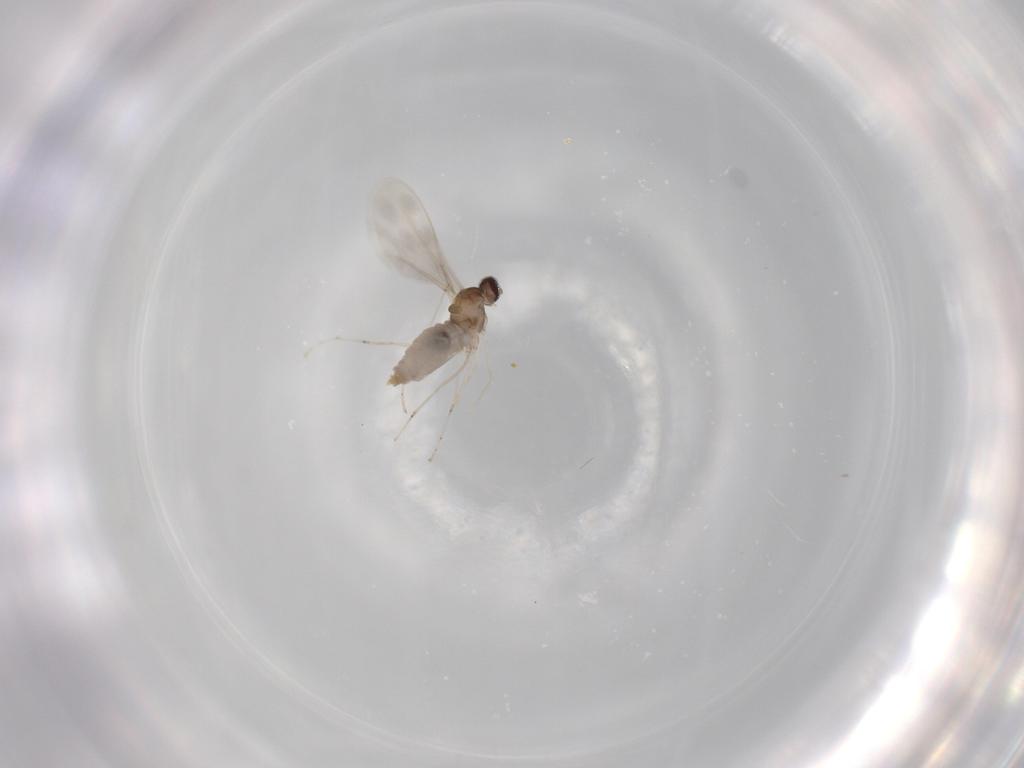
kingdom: Animalia
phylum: Arthropoda
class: Insecta
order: Diptera
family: Cecidomyiidae
